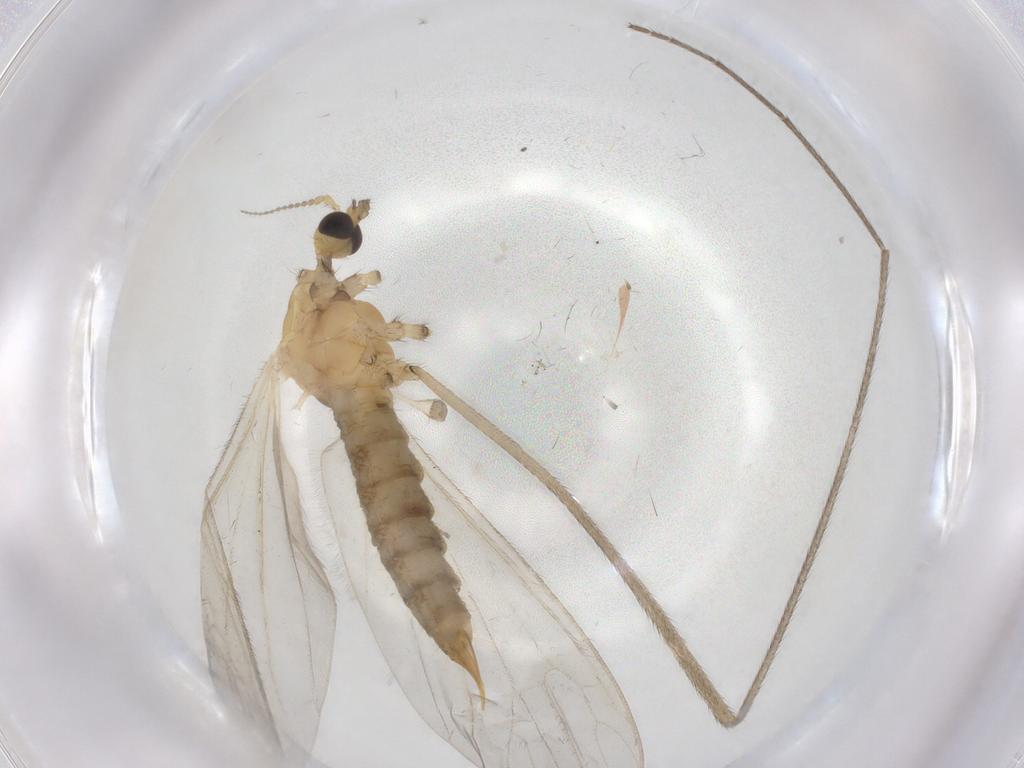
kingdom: Animalia
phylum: Arthropoda
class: Insecta
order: Diptera
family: Limoniidae
